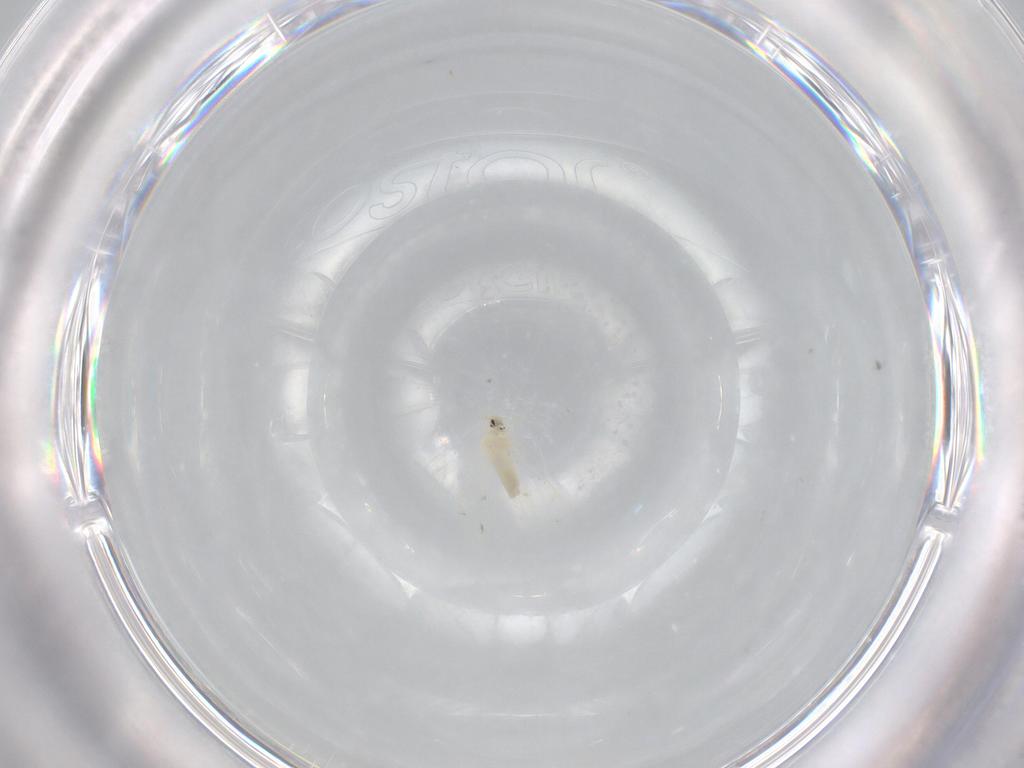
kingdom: Animalia
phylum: Arthropoda
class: Insecta
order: Hemiptera
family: Aleyrodidae
